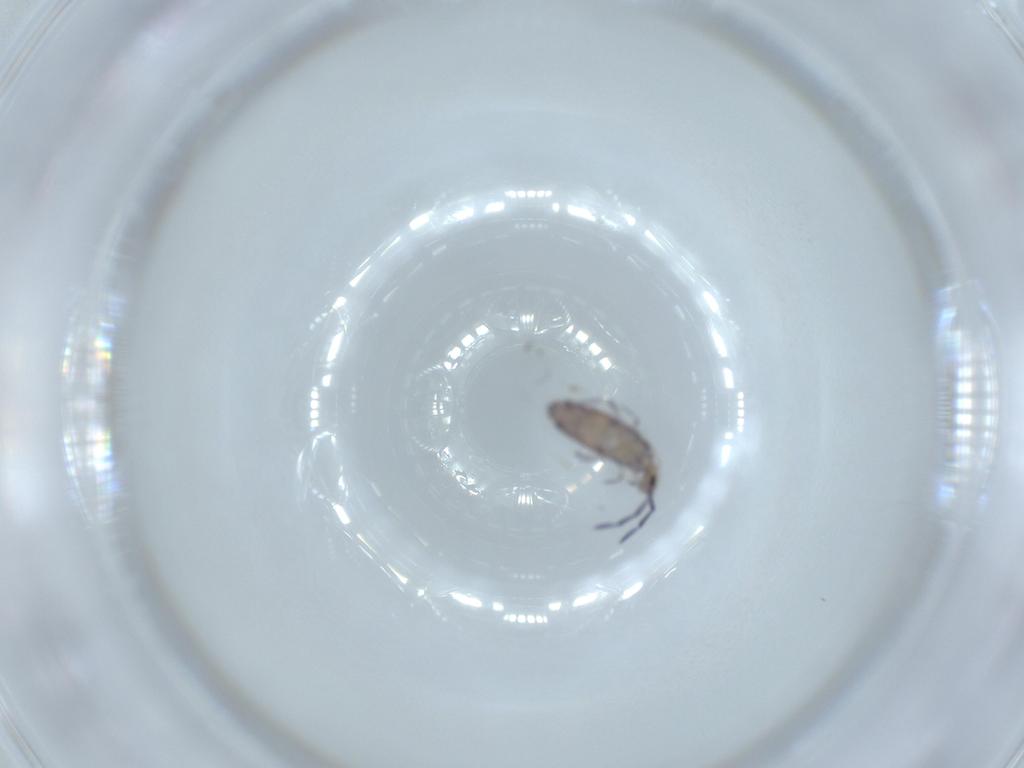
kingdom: Animalia
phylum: Arthropoda
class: Collembola
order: Entomobryomorpha
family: Entomobryidae
